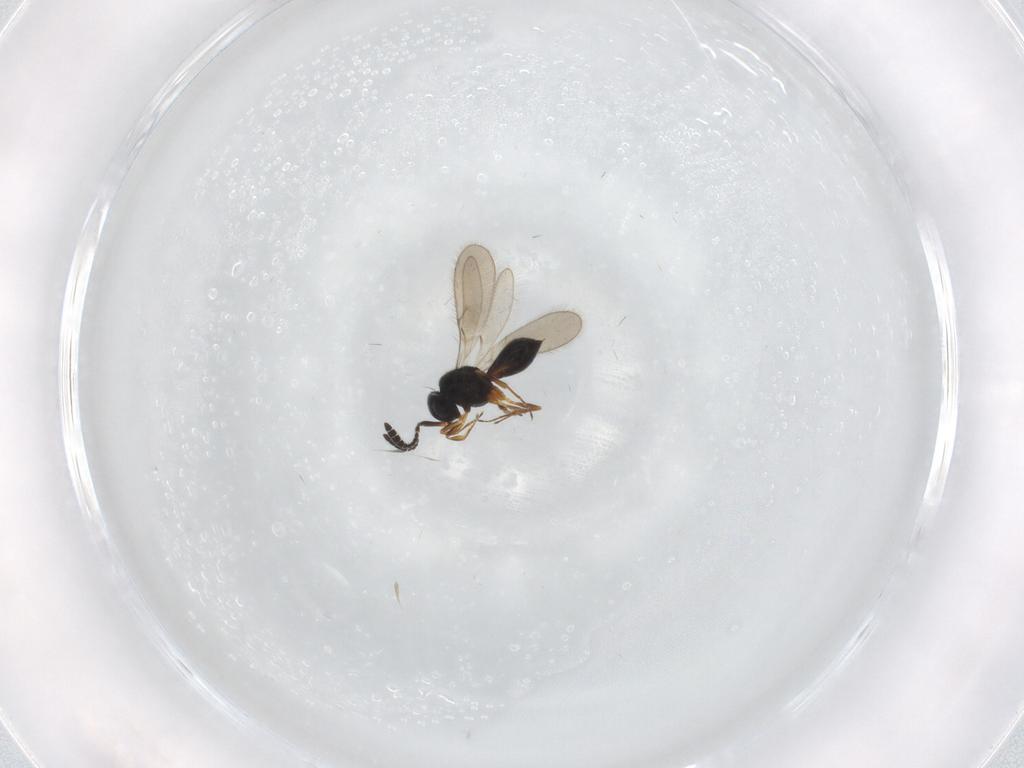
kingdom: Animalia
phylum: Arthropoda
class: Insecta
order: Hymenoptera
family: Scelionidae
